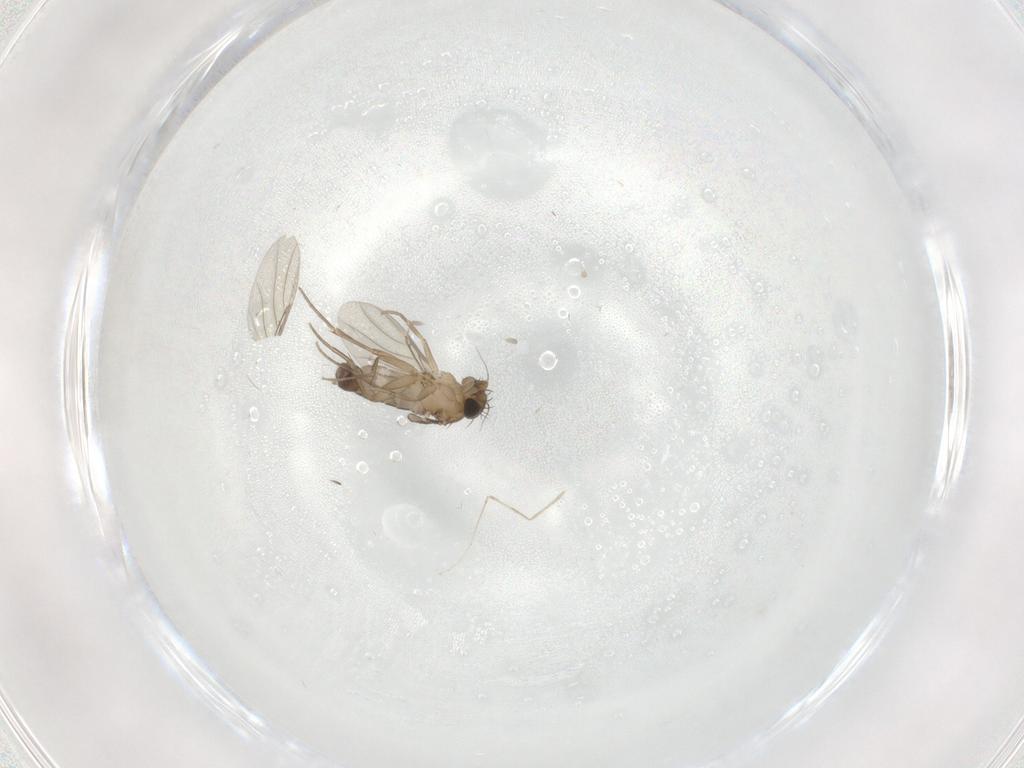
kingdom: Animalia
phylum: Arthropoda
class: Insecta
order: Diptera
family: Phoridae
